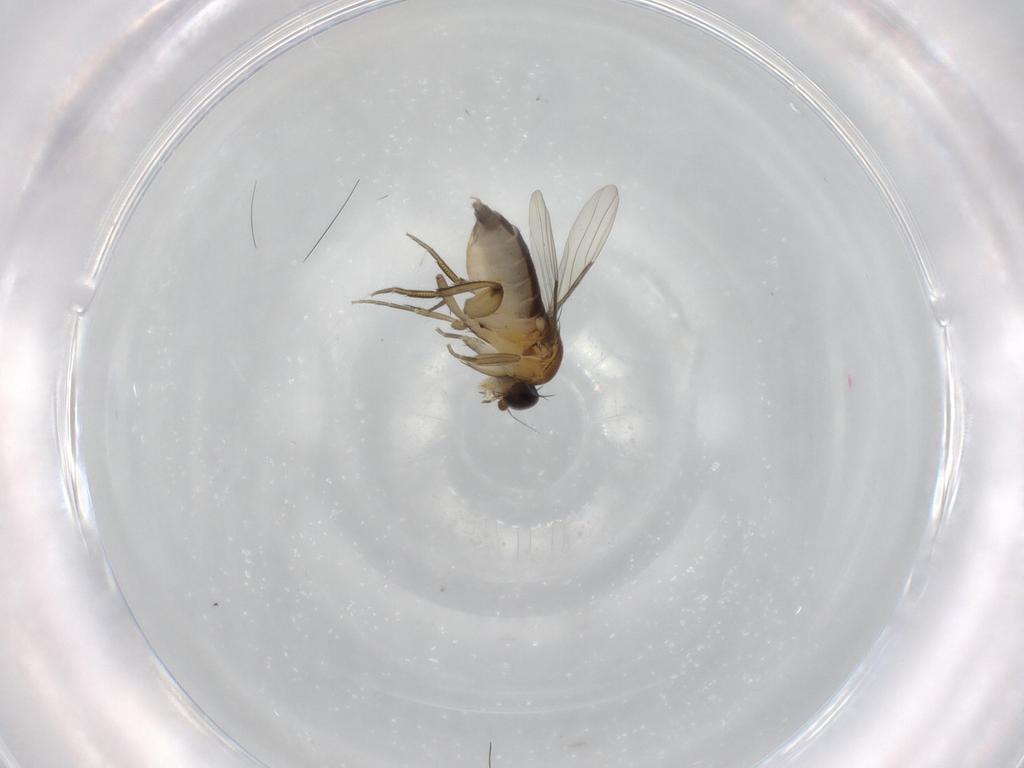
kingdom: Animalia
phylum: Arthropoda
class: Insecta
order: Diptera
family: Phoridae
